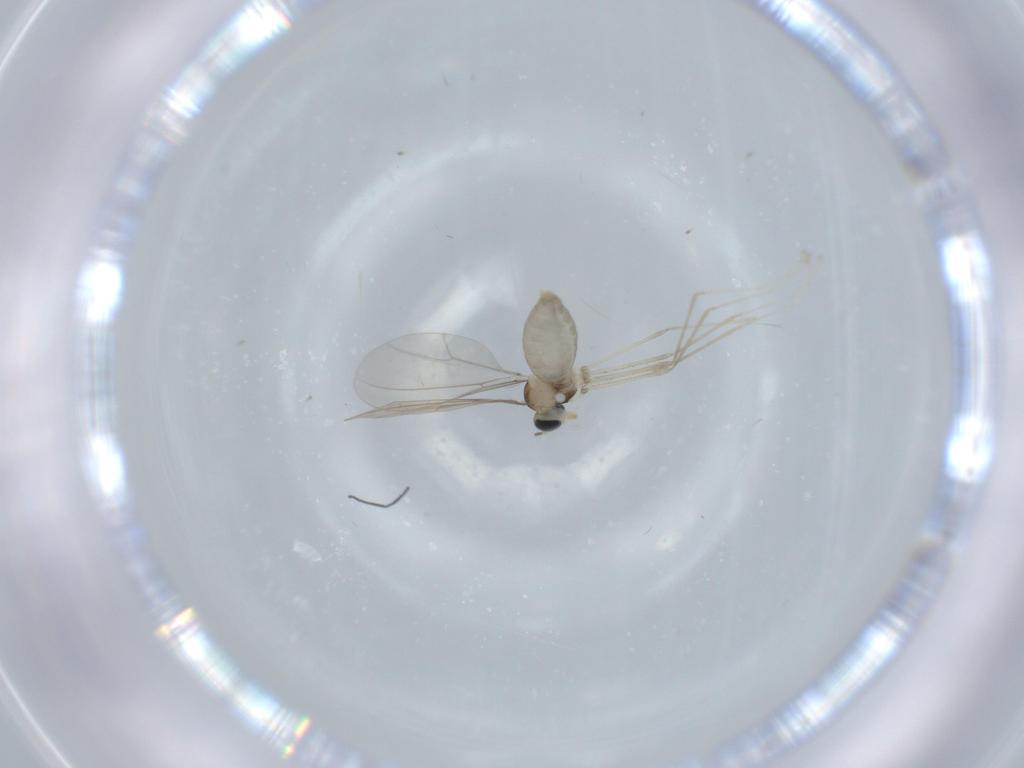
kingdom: Animalia
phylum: Arthropoda
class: Insecta
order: Diptera
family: Cecidomyiidae
